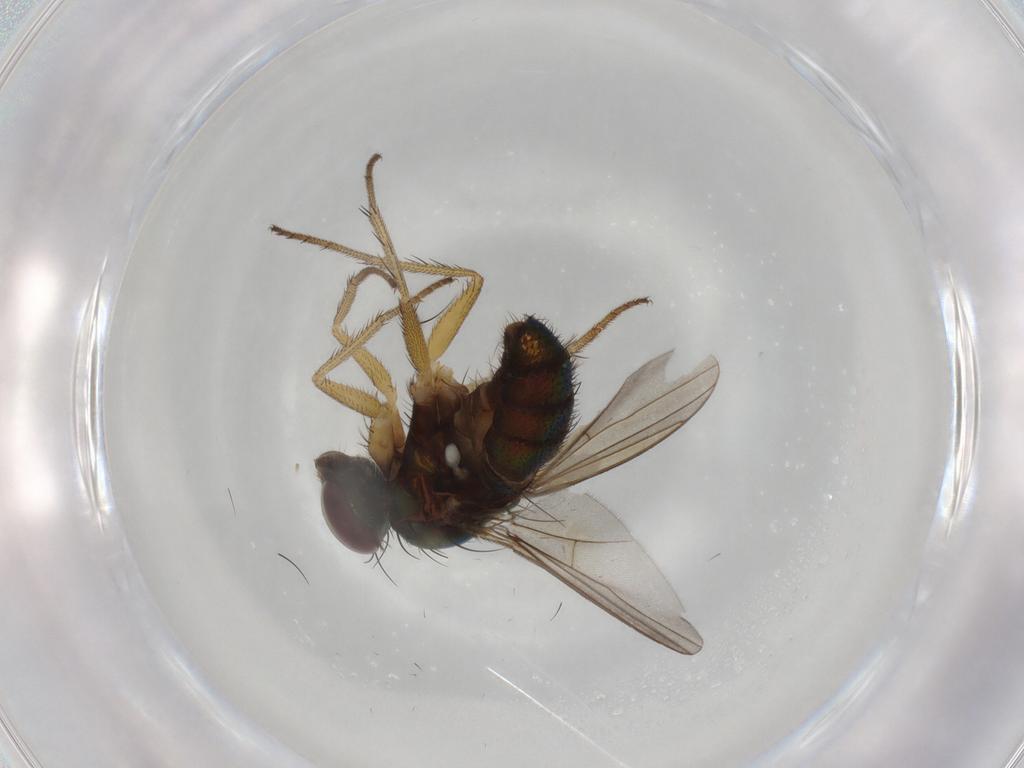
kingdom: Animalia
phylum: Arthropoda
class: Insecta
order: Diptera
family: Dolichopodidae
